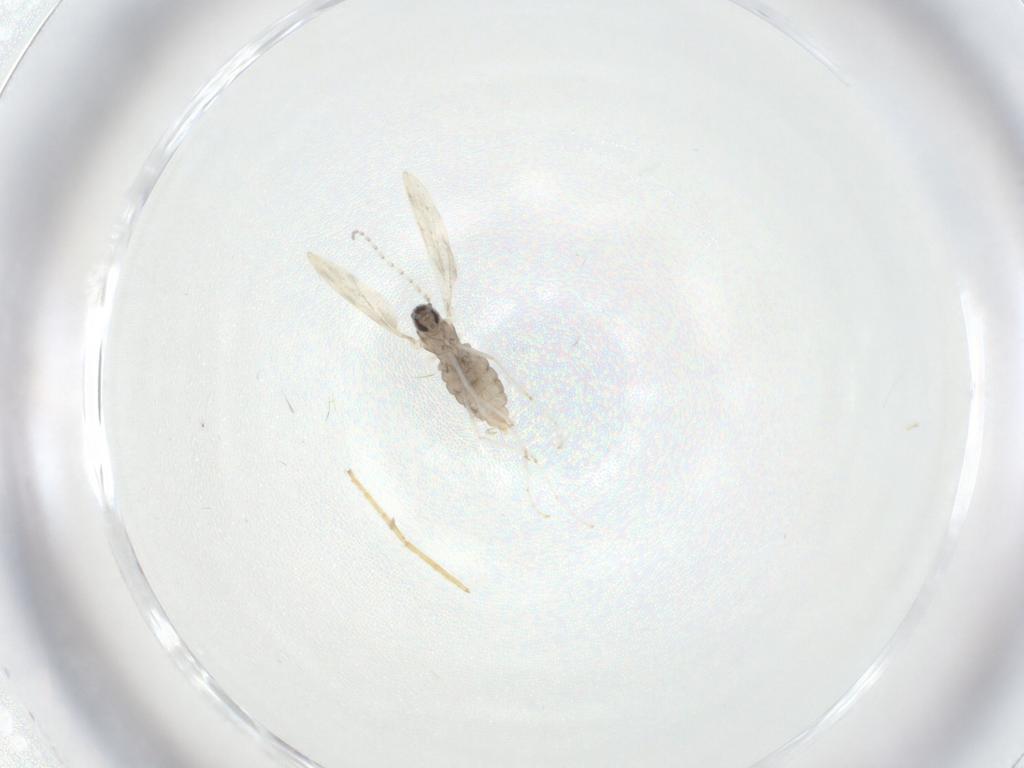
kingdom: Animalia
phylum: Arthropoda
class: Insecta
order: Diptera
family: Cecidomyiidae
